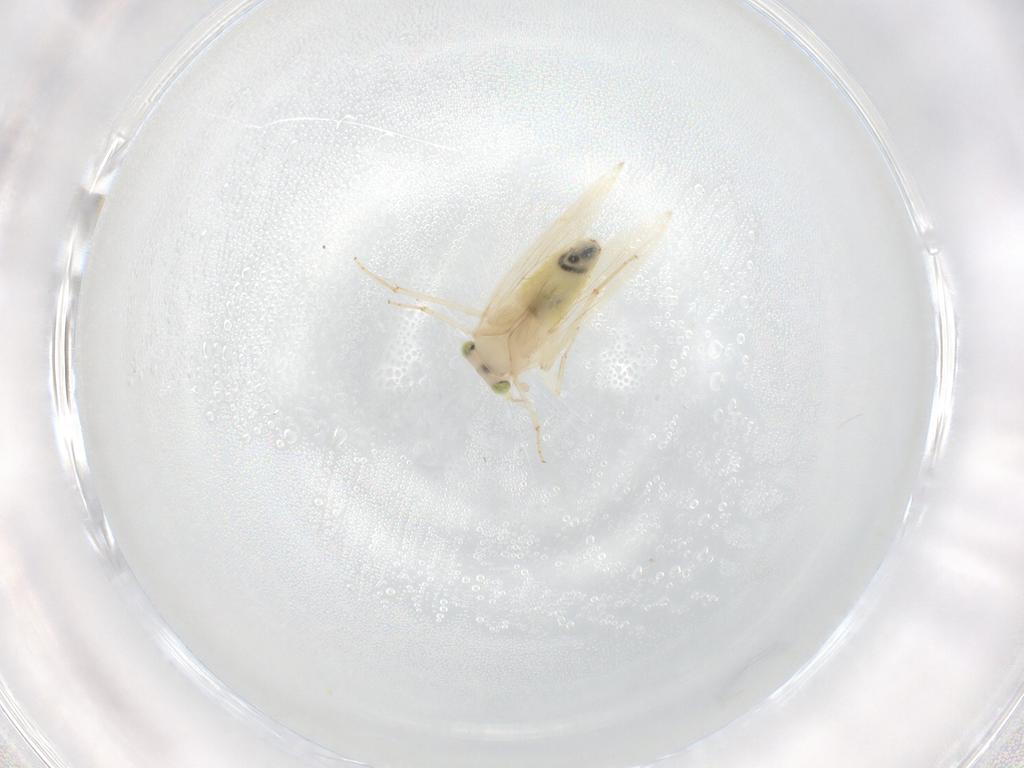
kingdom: Animalia
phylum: Arthropoda
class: Insecta
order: Psocodea
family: Lepidopsocidae
